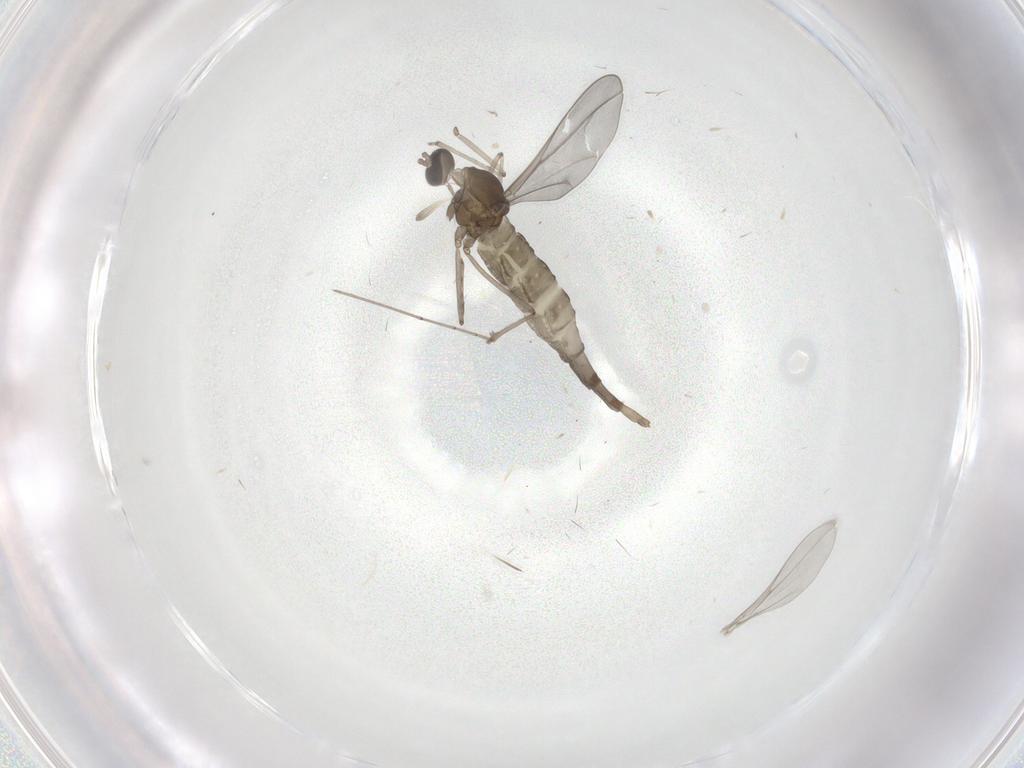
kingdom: Animalia
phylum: Arthropoda
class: Insecta
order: Diptera
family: Cecidomyiidae
